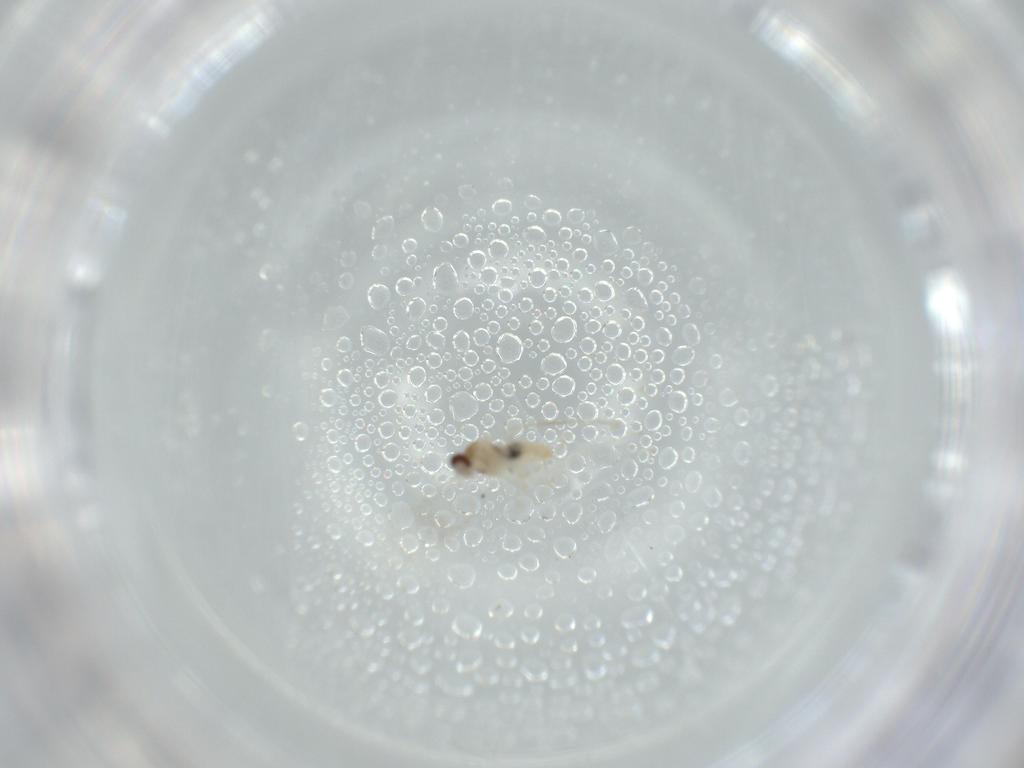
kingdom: Animalia
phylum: Arthropoda
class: Insecta
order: Diptera
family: Cecidomyiidae
